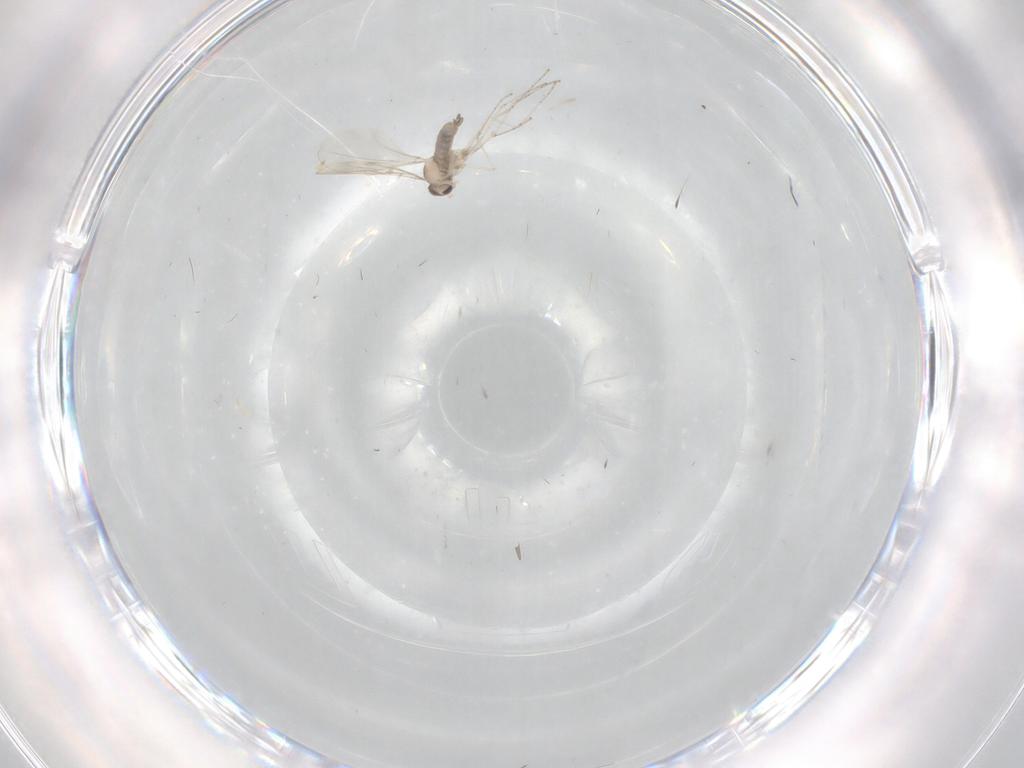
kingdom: Animalia
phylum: Arthropoda
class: Insecta
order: Diptera
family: Ceratopogonidae
